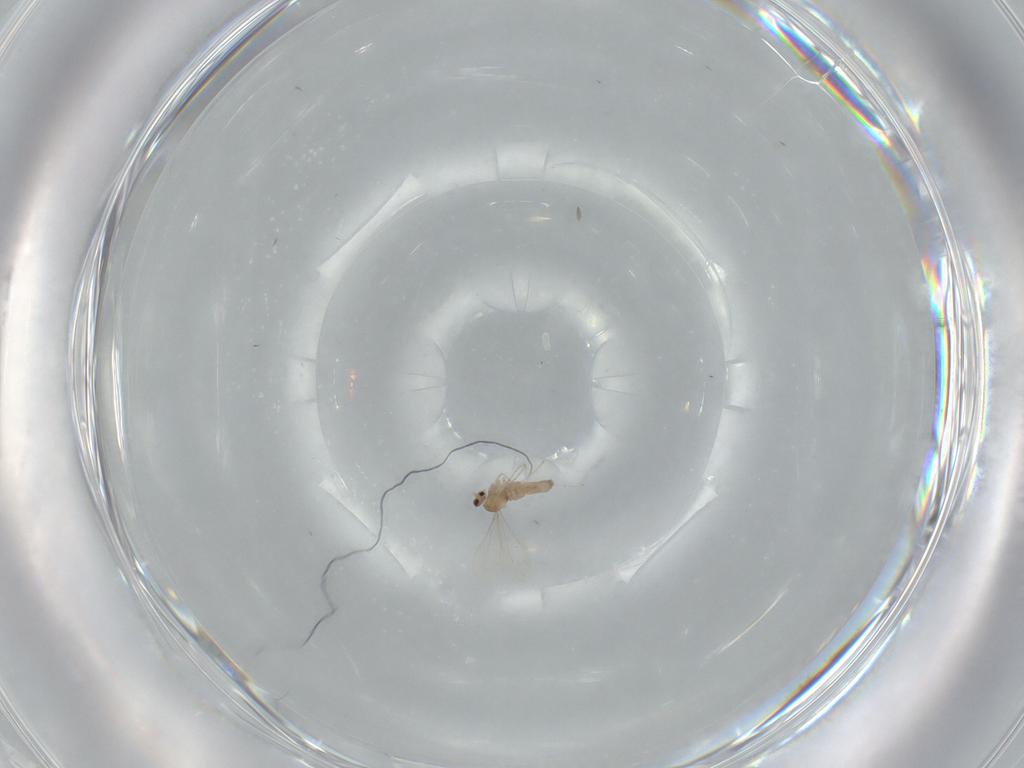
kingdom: Animalia
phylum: Arthropoda
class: Insecta
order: Diptera
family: Cecidomyiidae
